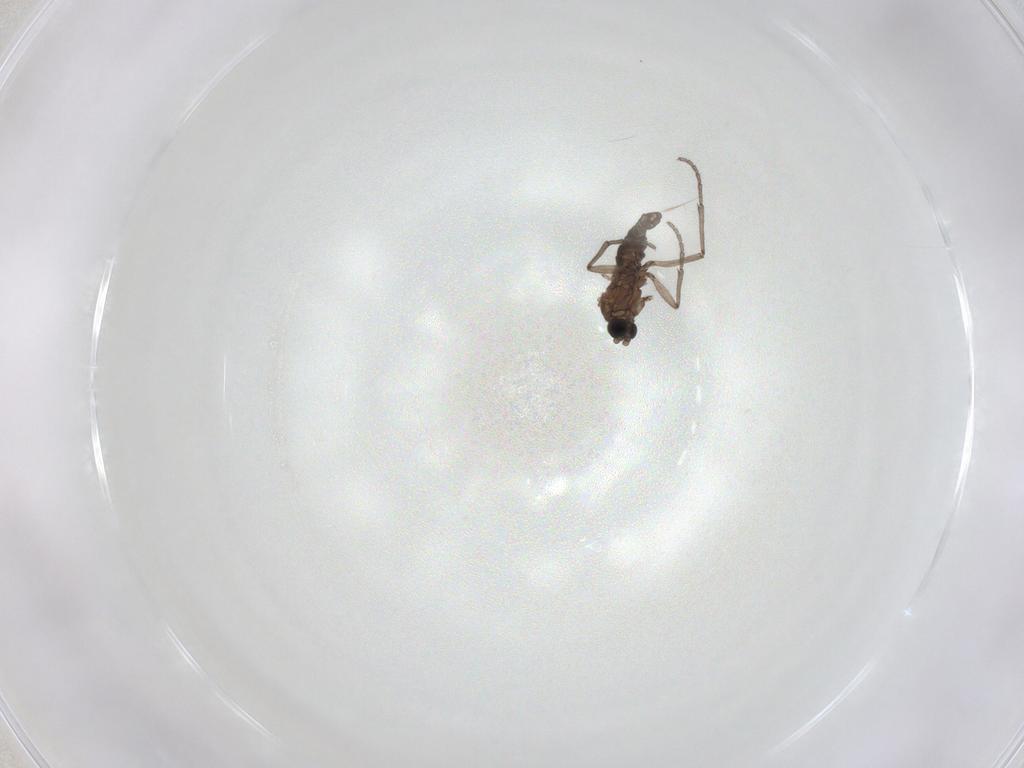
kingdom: Animalia
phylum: Arthropoda
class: Insecta
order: Diptera
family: Sciaridae
